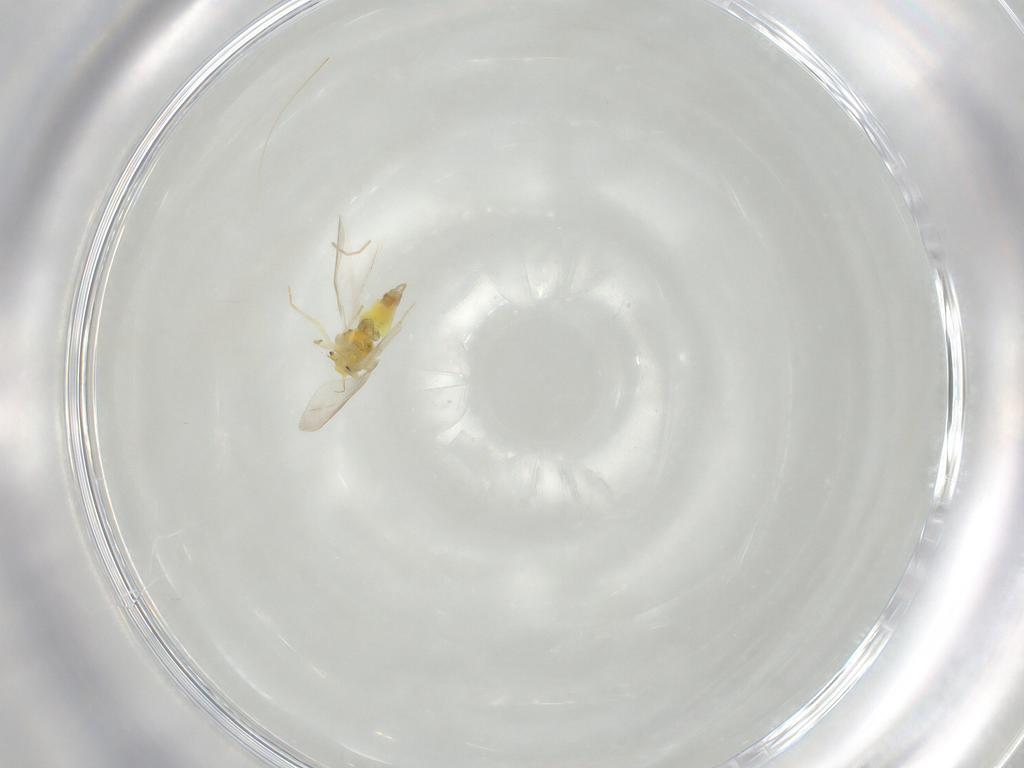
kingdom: Animalia
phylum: Arthropoda
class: Insecta
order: Hemiptera
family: Aleyrodidae
